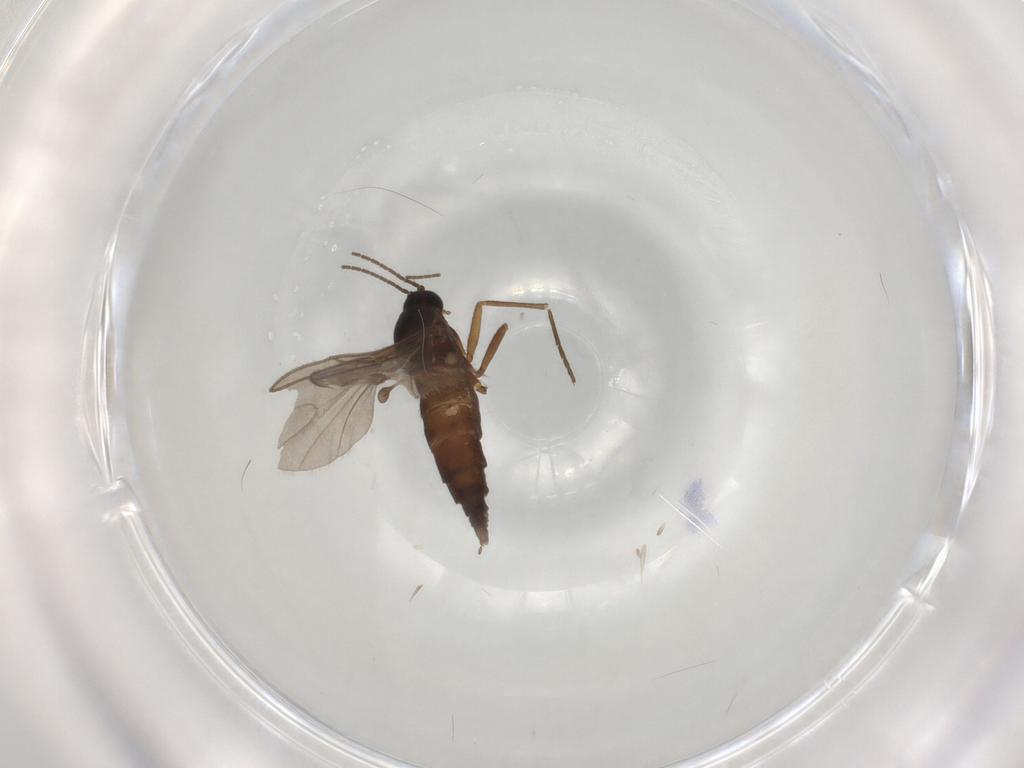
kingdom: Animalia
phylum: Arthropoda
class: Insecta
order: Diptera
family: Sciaridae
